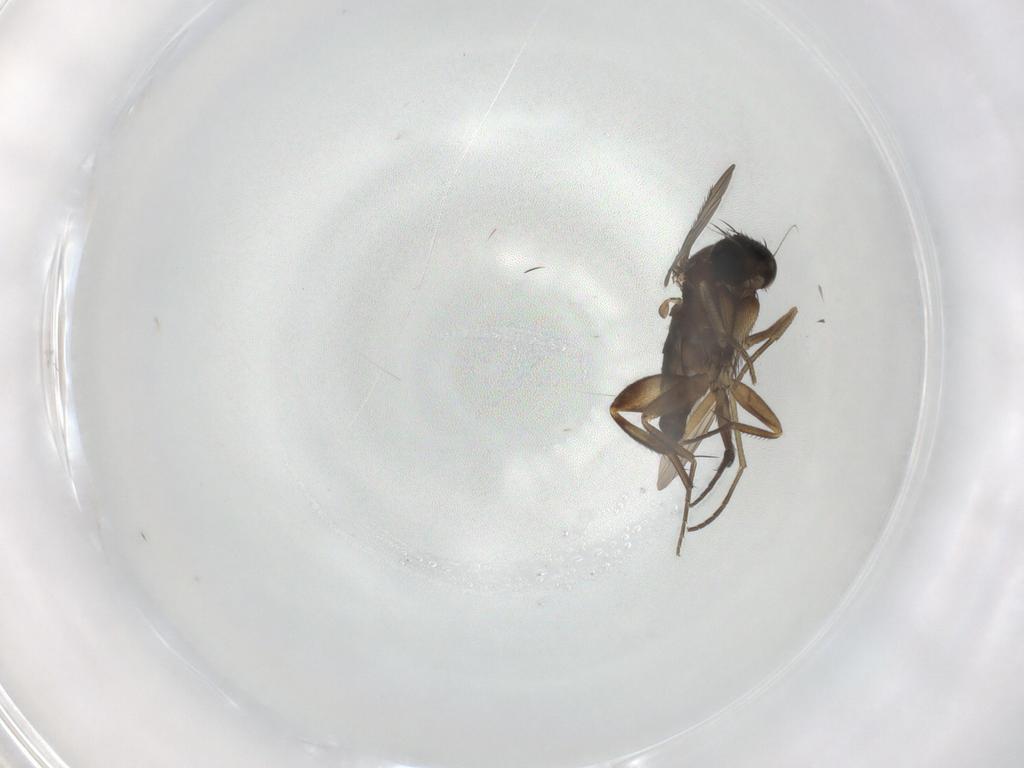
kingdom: Animalia
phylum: Arthropoda
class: Insecta
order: Diptera
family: Phoridae
